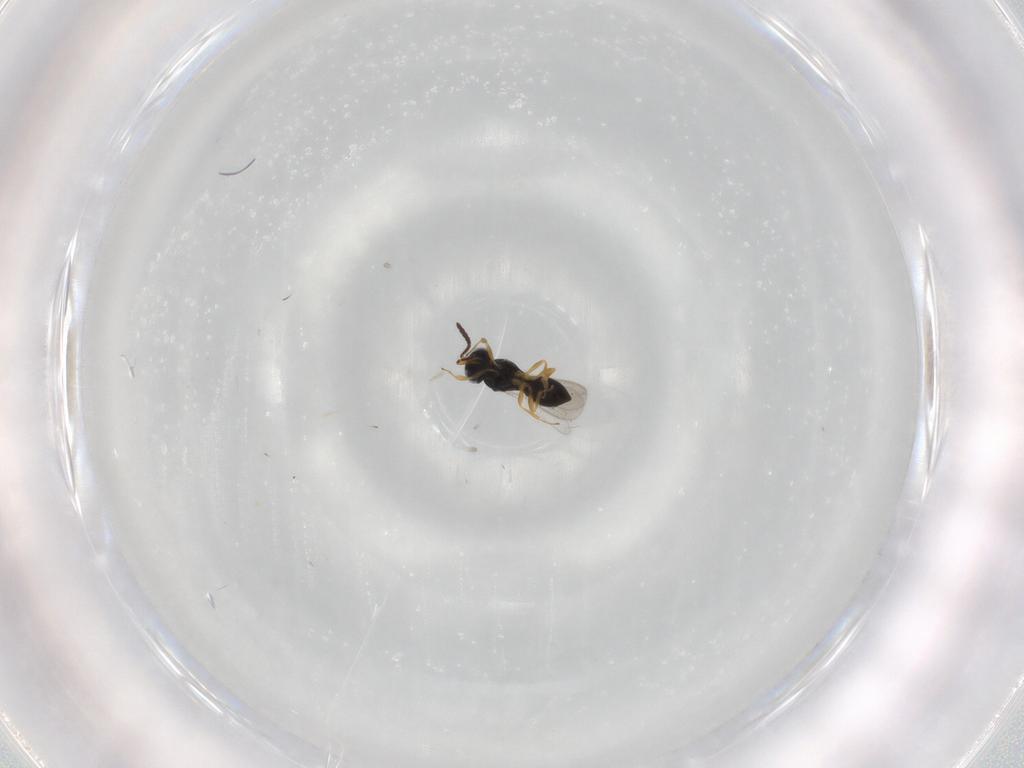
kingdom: Animalia
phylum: Arthropoda
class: Insecta
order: Hymenoptera
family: Scelionidae
